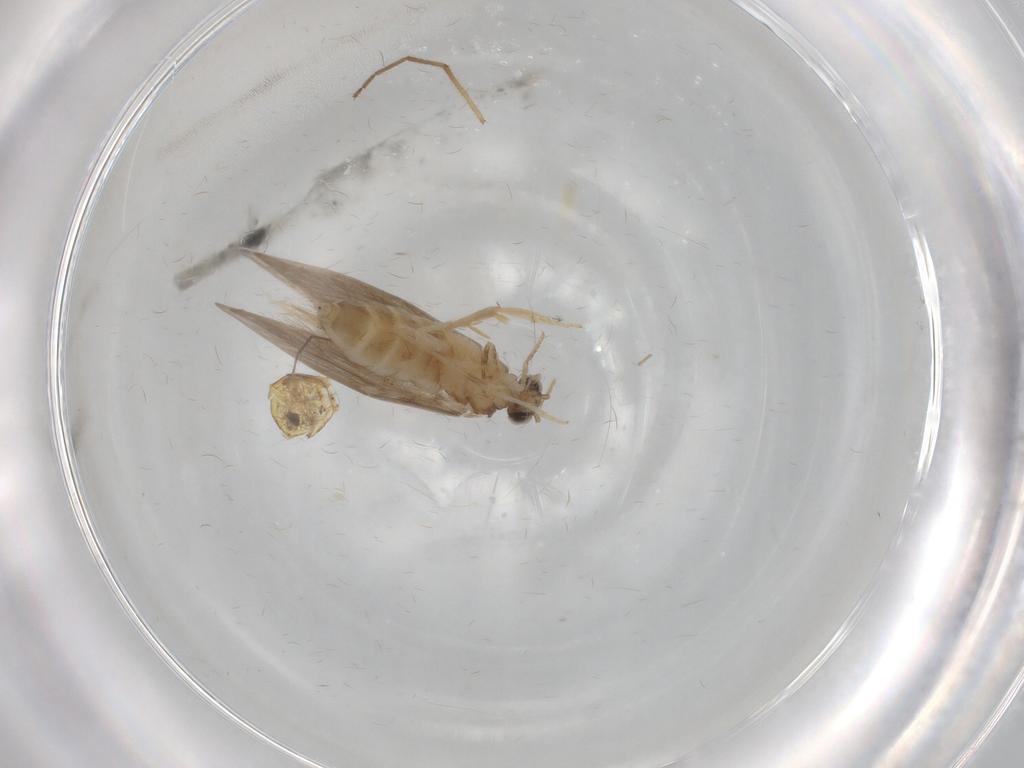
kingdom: Animalia
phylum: Arthropoda
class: Insecta
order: Diptera
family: Chironomidae
